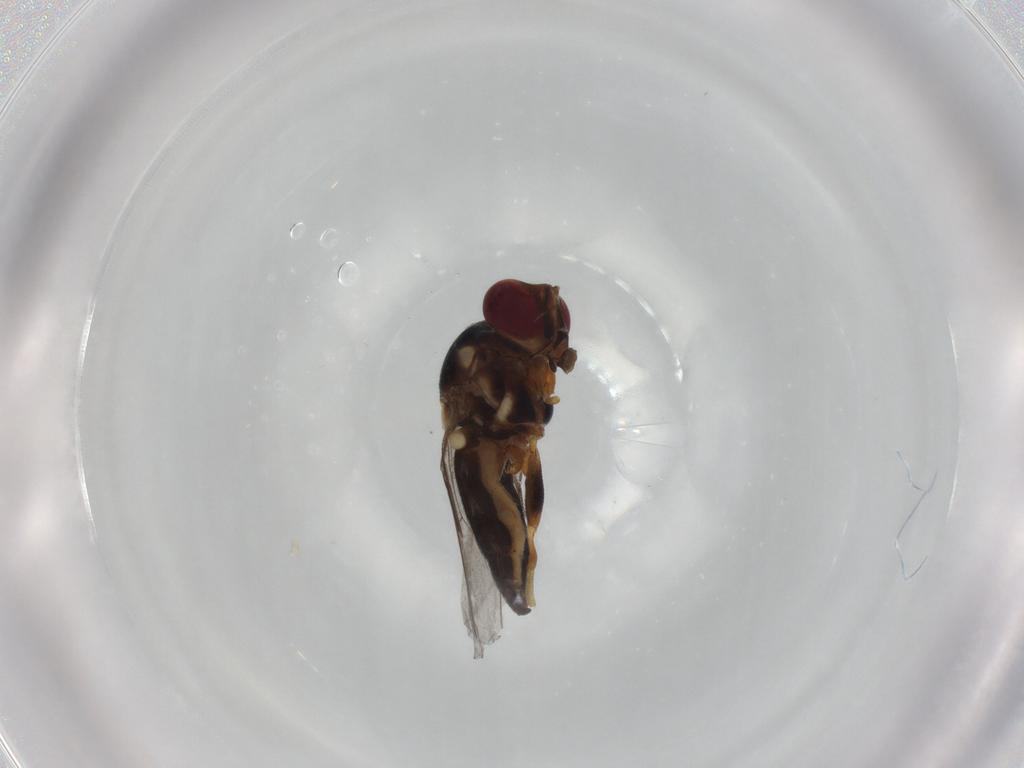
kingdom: Animalia
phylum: Arthropoda
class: Insecta
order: Diptera
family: Chloropidae
